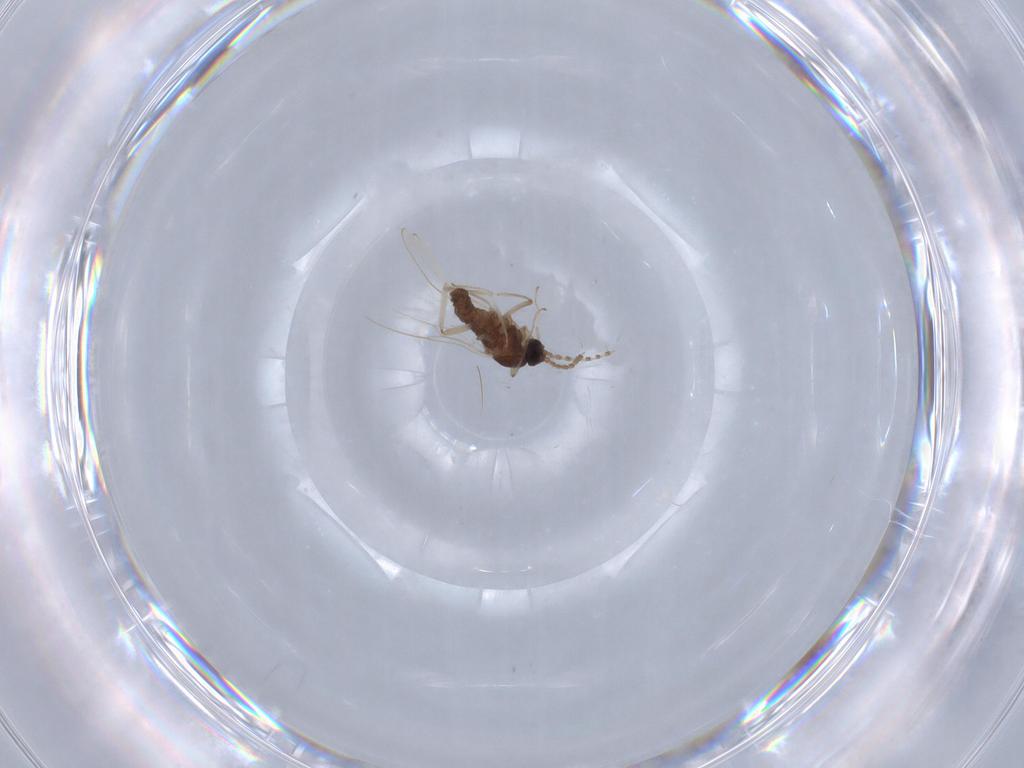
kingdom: Animalia
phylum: Arthropoda
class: Insecta
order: Diptera
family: Cecidomyiidae
